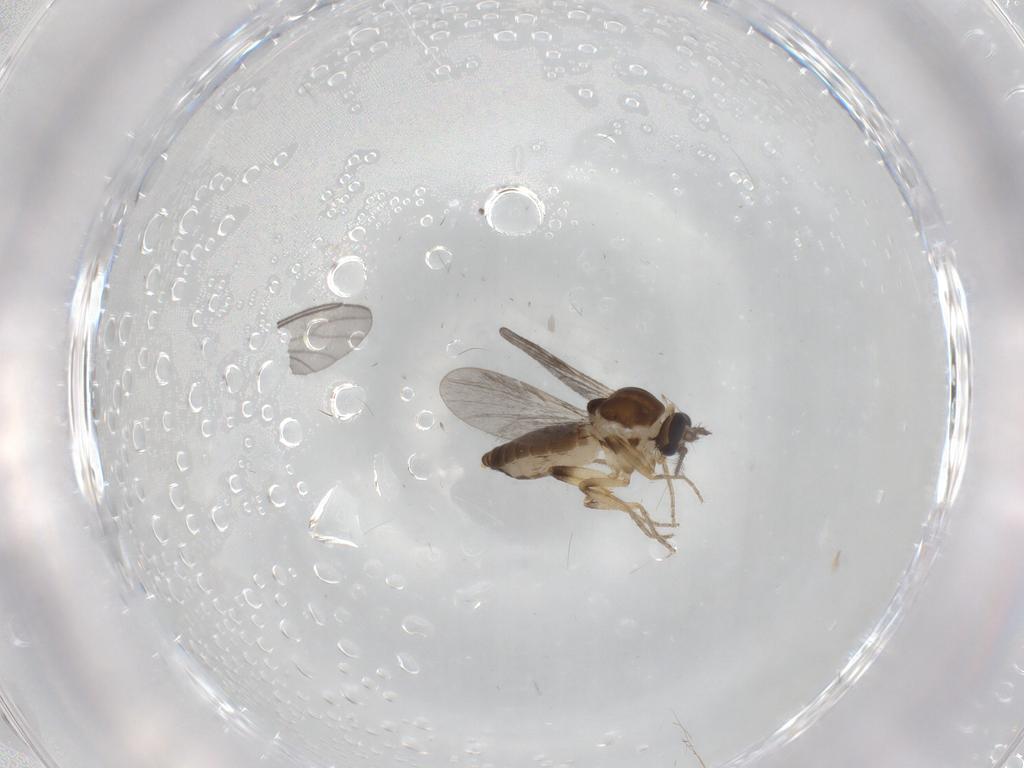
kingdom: Animalia
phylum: Arthropoda
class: Insecta
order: Diptera
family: Ceratopogonidae
